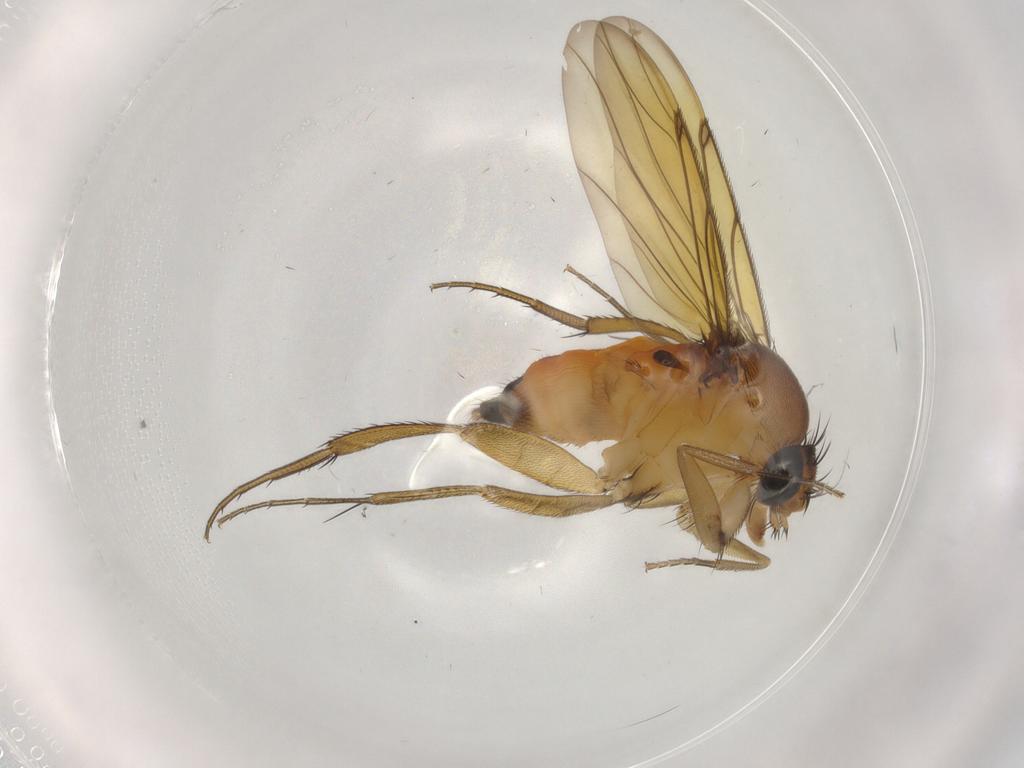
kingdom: Animalia
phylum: Arthropoda
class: Insecta
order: Diptera
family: Phoridae
